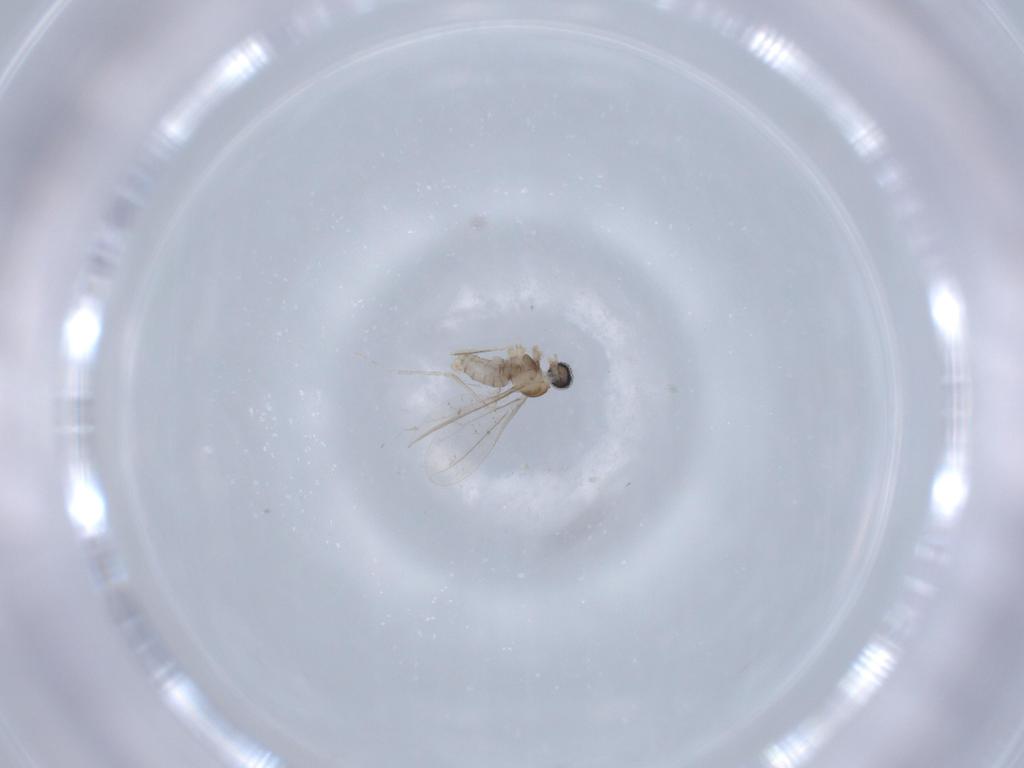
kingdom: Animalia
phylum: Arthropoda
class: Insecta
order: Diptera
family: Cecidomyiidae
